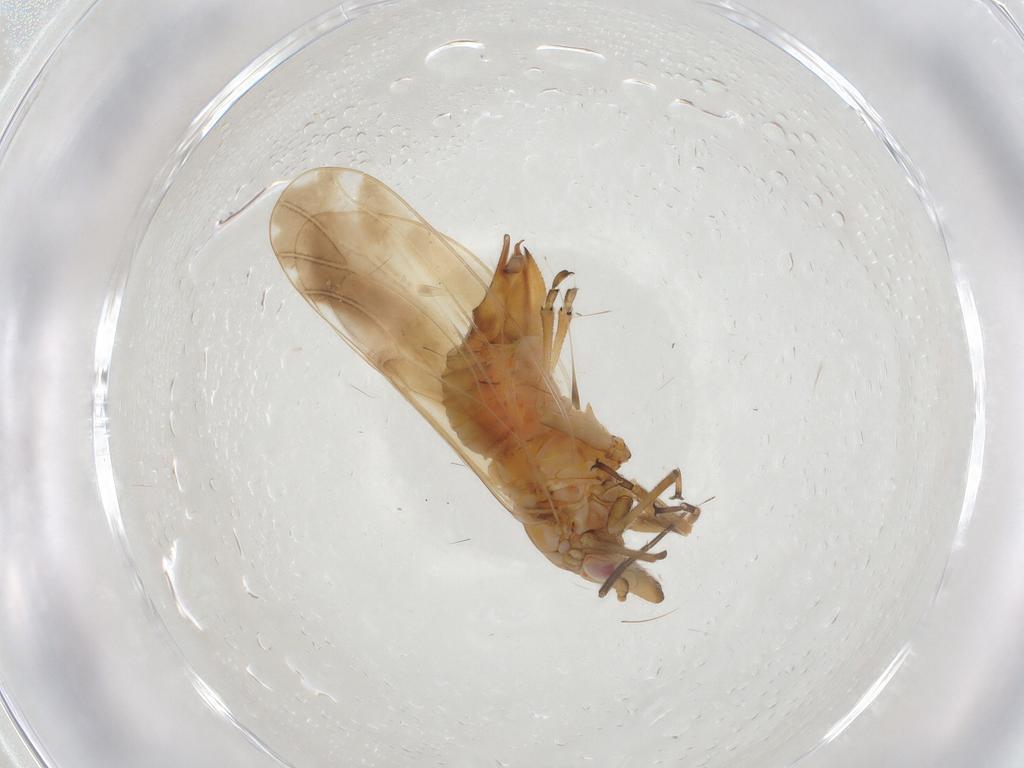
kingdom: Animalia
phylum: Arthropoda
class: Insecta
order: Hemiptera
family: Psyllidae
